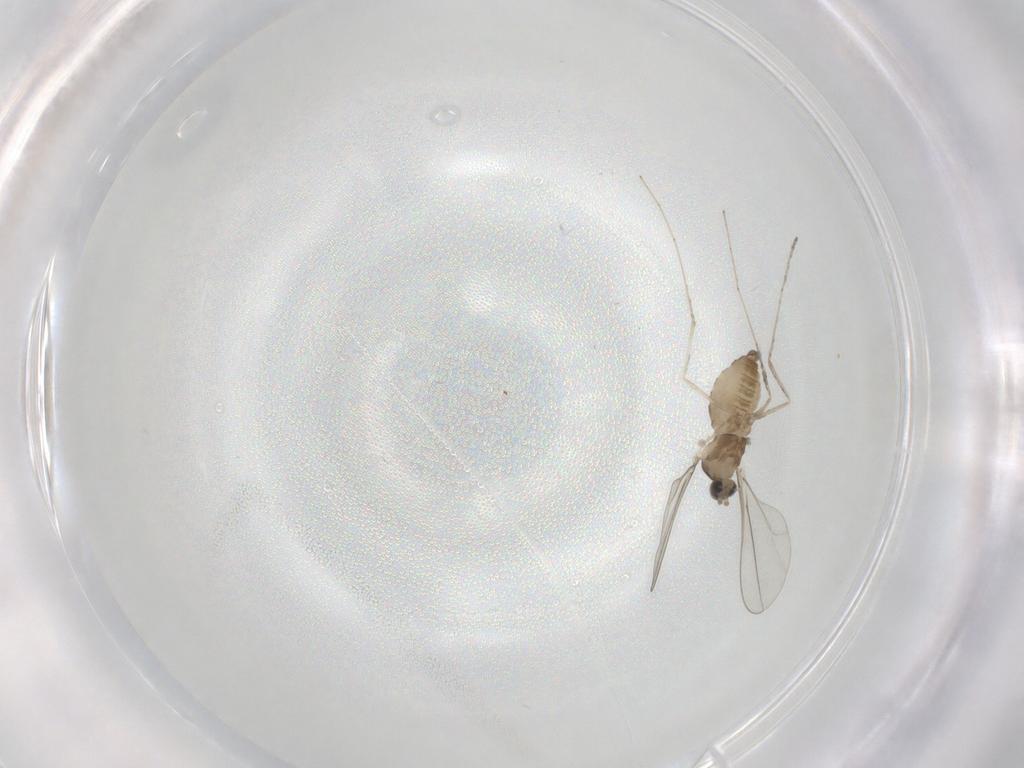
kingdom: Animalia
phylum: Arthropoda
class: Insecta
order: Diptera
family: Cecidomyiidae
